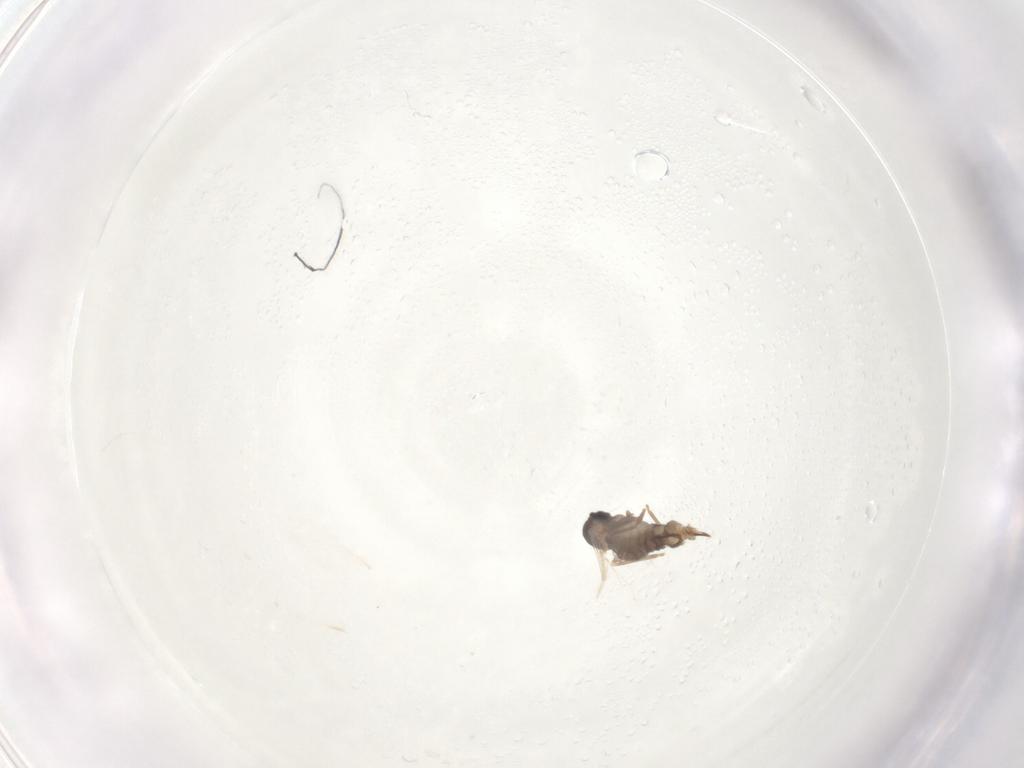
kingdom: Animalia
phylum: Arthropoda
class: Insecta
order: Diptera
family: Cecidomyiidae
